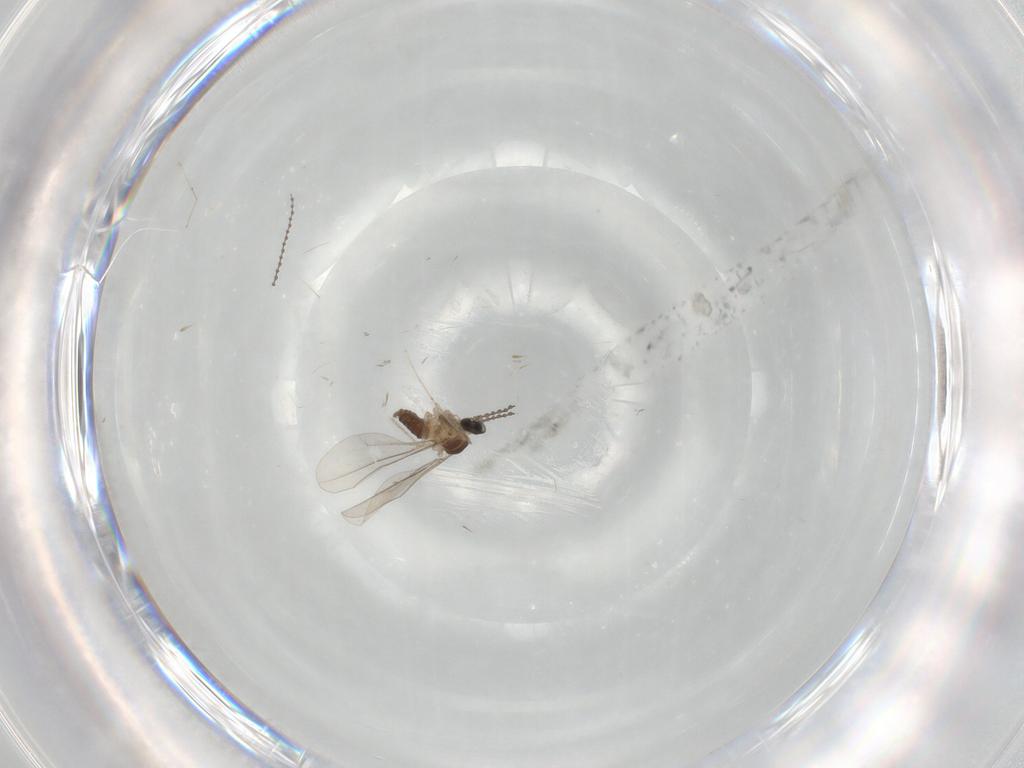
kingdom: Animalia
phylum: Arthropoda
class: Insecta
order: Diptera
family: Cecidomyiidae
